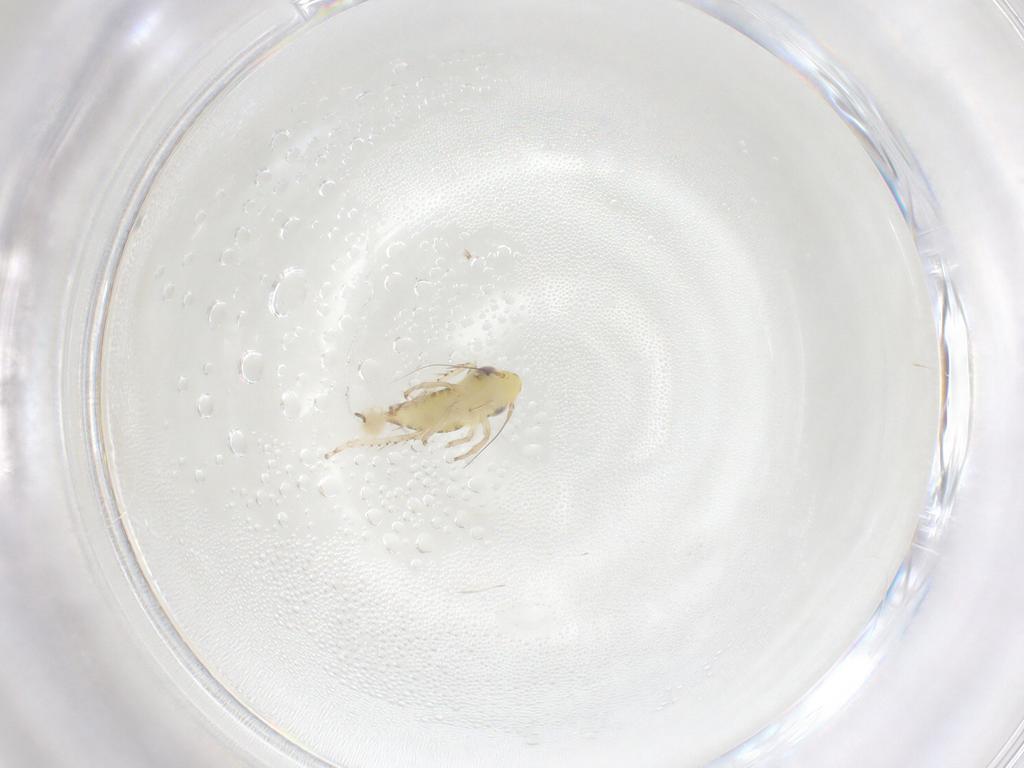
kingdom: Animalia
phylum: Arthropoda
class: Insecta
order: Hemiptera
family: Cicadellidae
